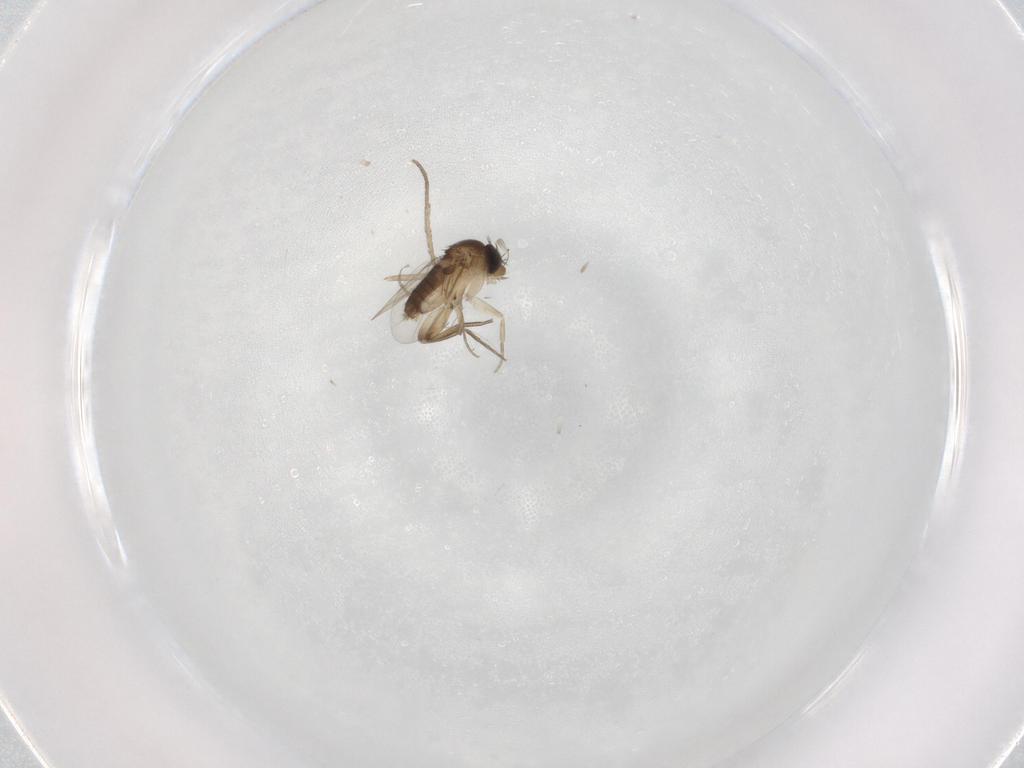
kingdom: Animalia
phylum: Arthropoda
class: Insecta
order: Diptera
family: Phoridae
